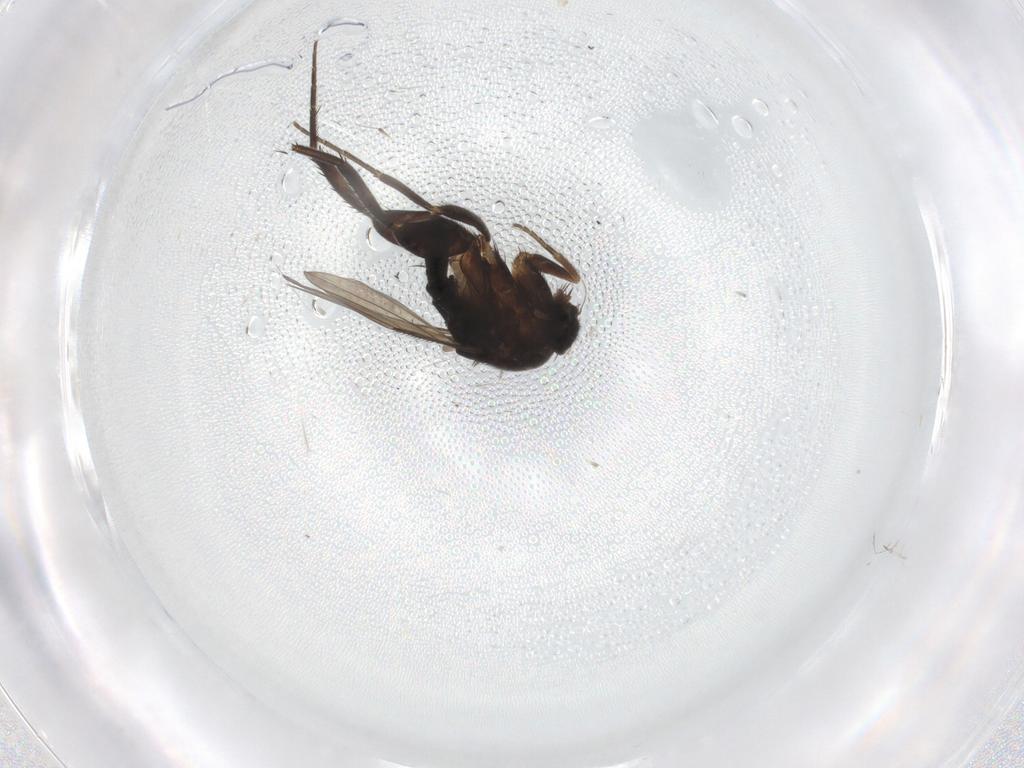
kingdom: Animalia
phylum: Arthropoda
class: Insecta
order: Diptera
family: Phoridae
